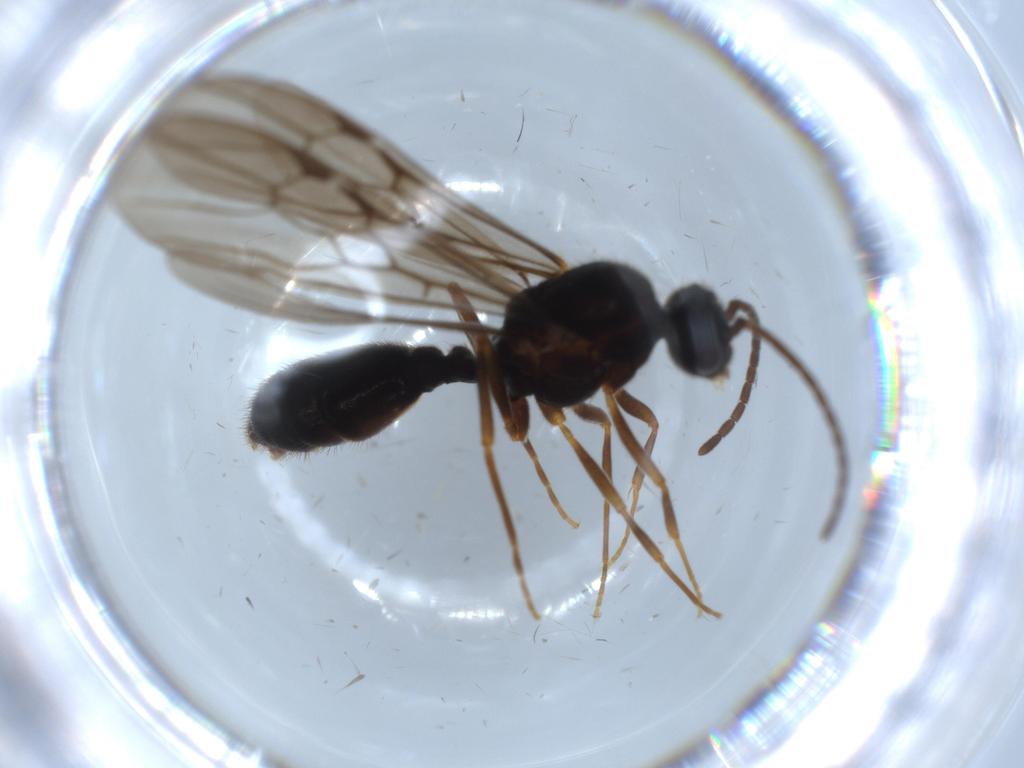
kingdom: Animalia
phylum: Arthropoda
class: Insecta
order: Hymenoptera
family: Formicidae
